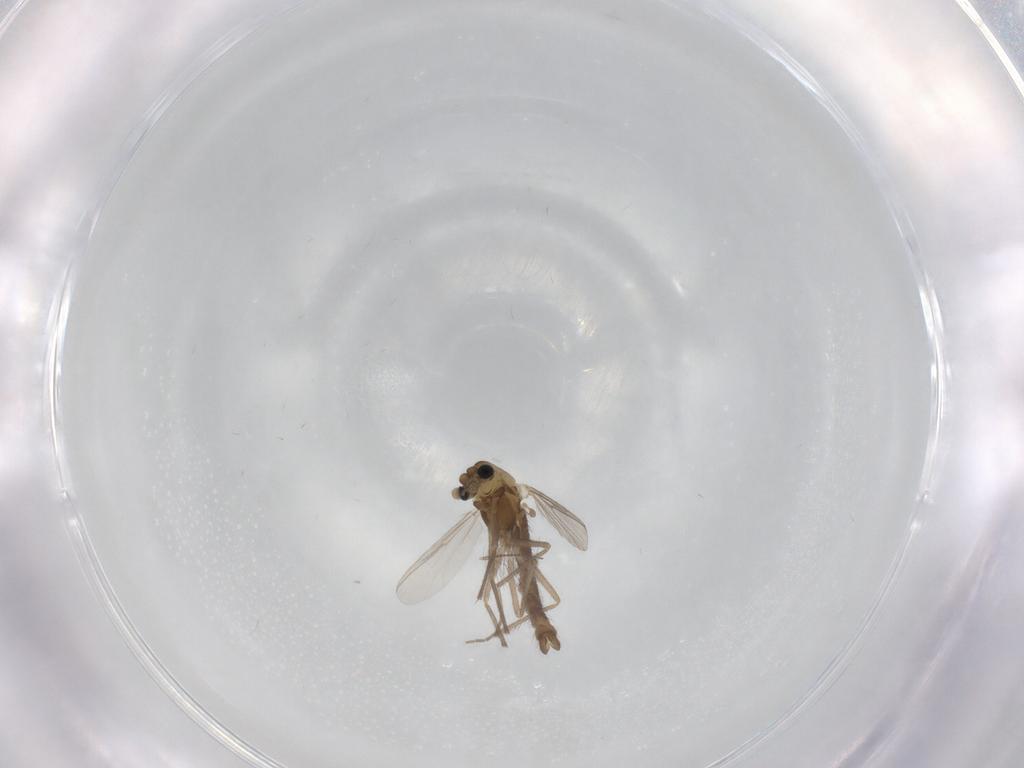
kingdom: Animalia
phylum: Arthropoda
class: Insecta
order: Diptera
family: Chironomidae
